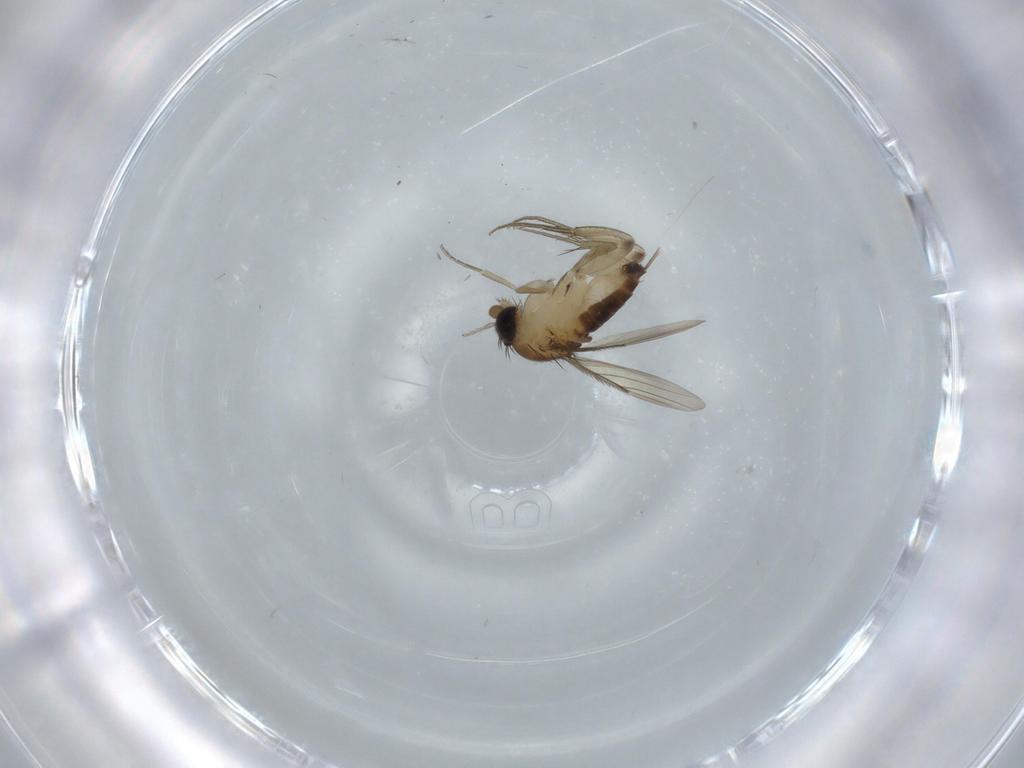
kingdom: Animalia
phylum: Arthropoda
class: Insecta
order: Diptera
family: Phoridae
